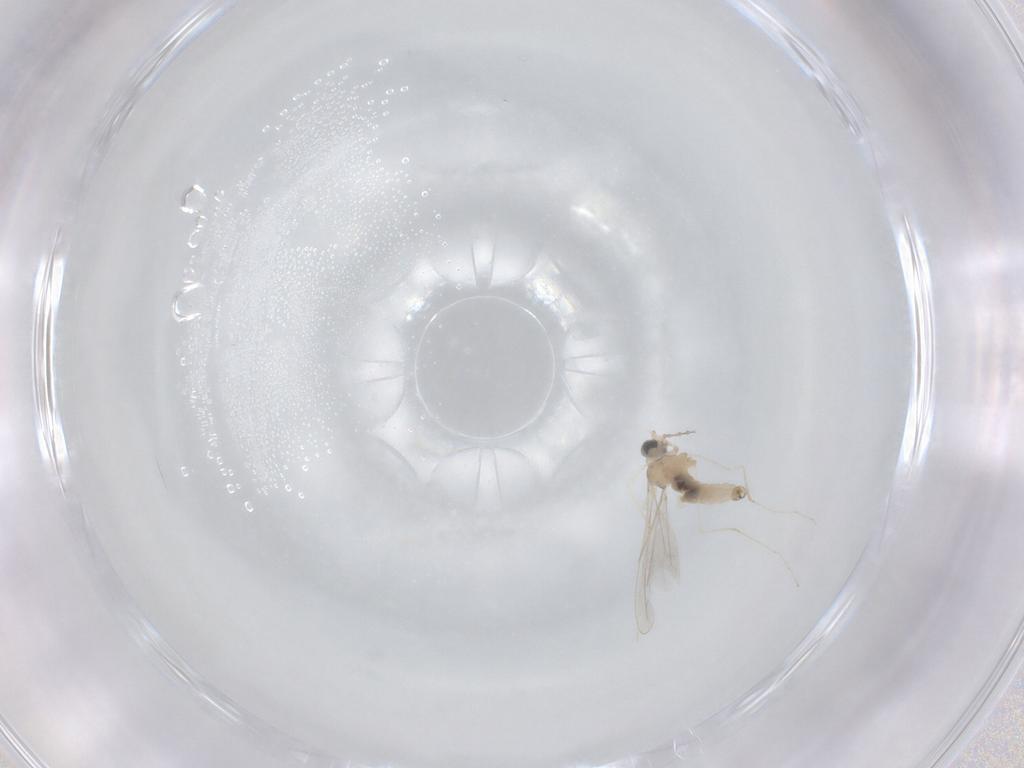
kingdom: Animalia
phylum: Arthropoda
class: Insecta
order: Diptera
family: Cecidomyiidae
